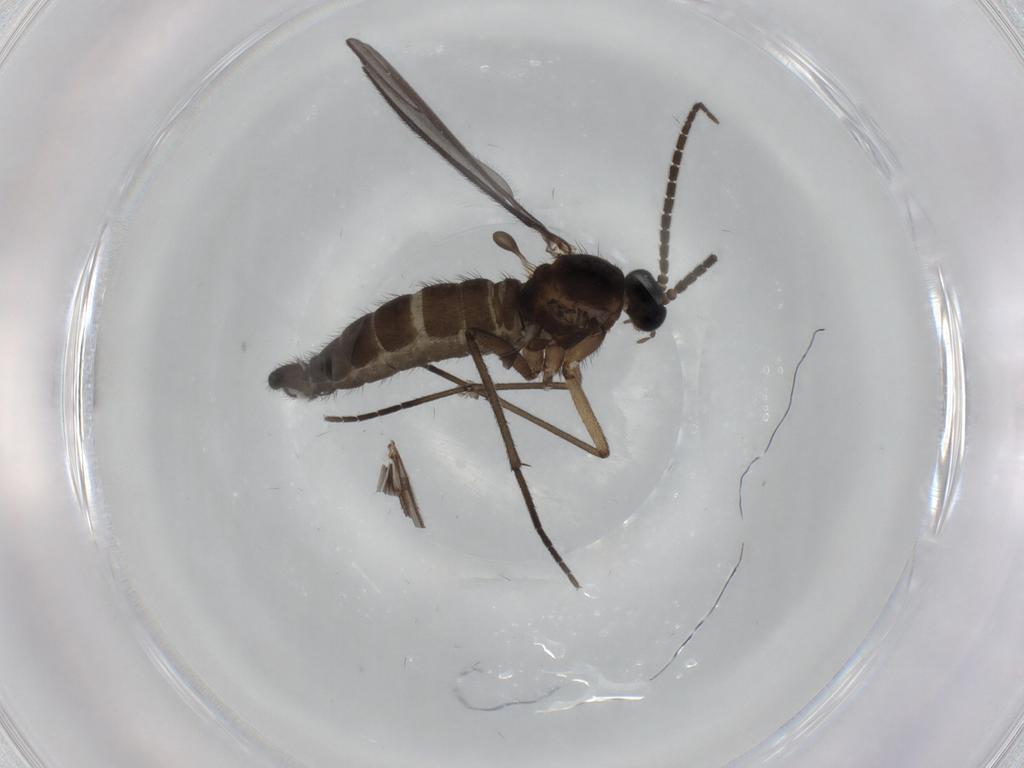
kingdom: Animalia
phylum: Arthropoda
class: Insecta
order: Diptera
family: Sciaridae
